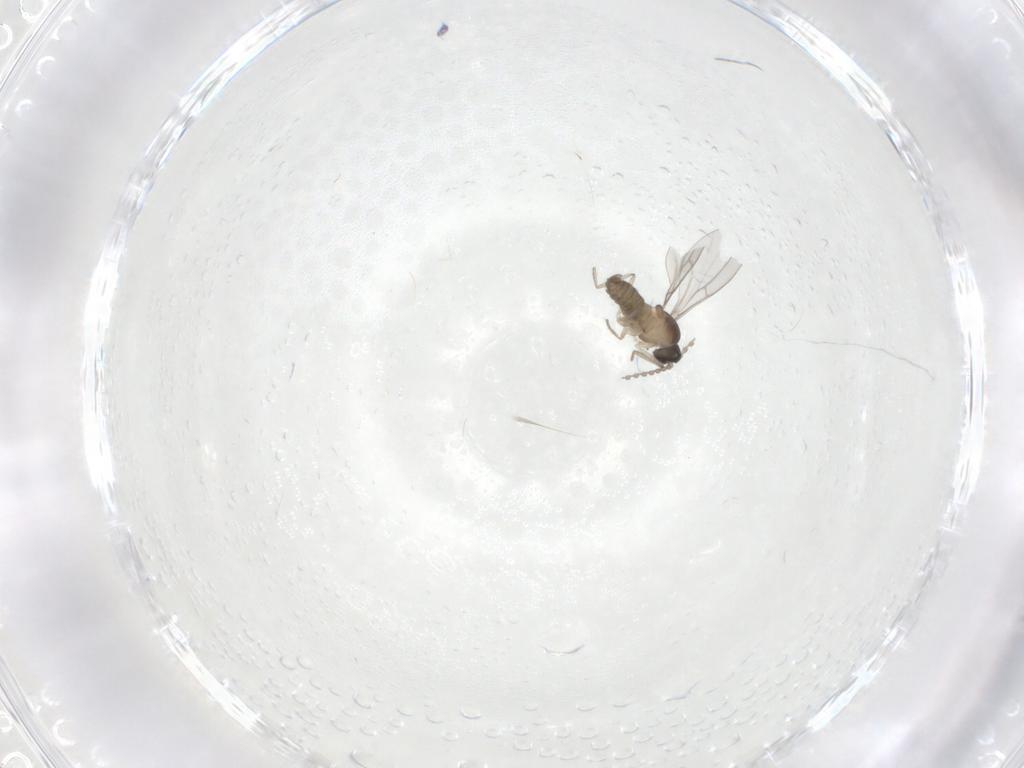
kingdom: Animalia
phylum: Arthropoda
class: Insecta
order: Diptera
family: Cecidomyiidae
